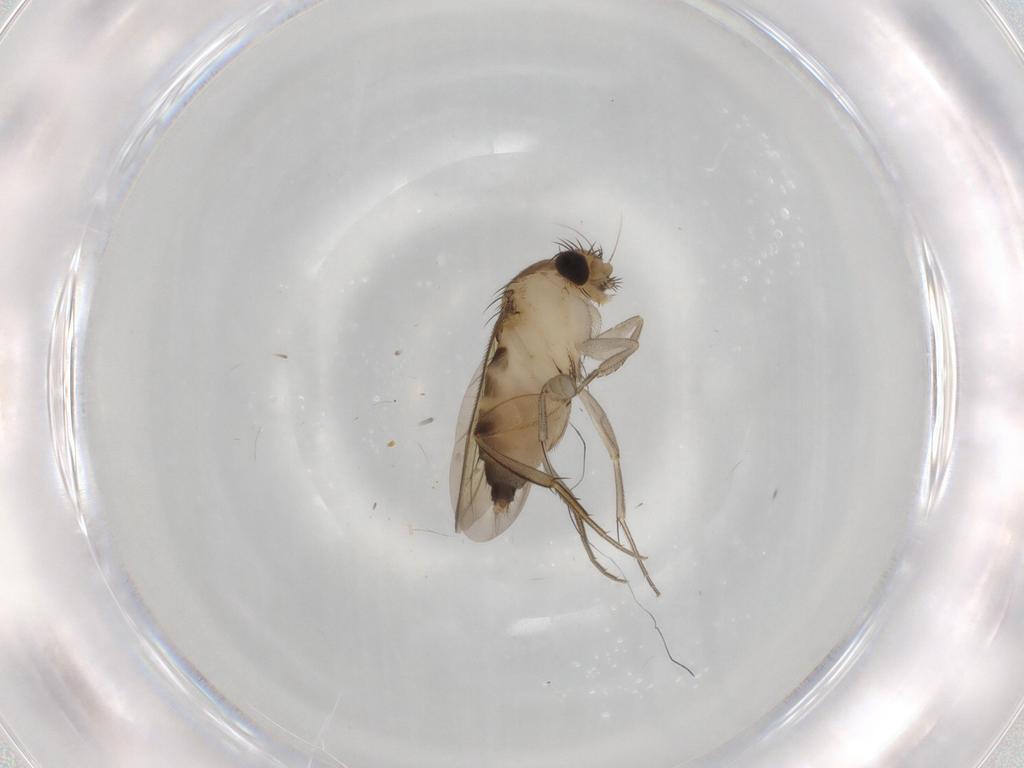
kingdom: Animalia
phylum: Arthropoda
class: Insecta
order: Diptera
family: Phoridae
